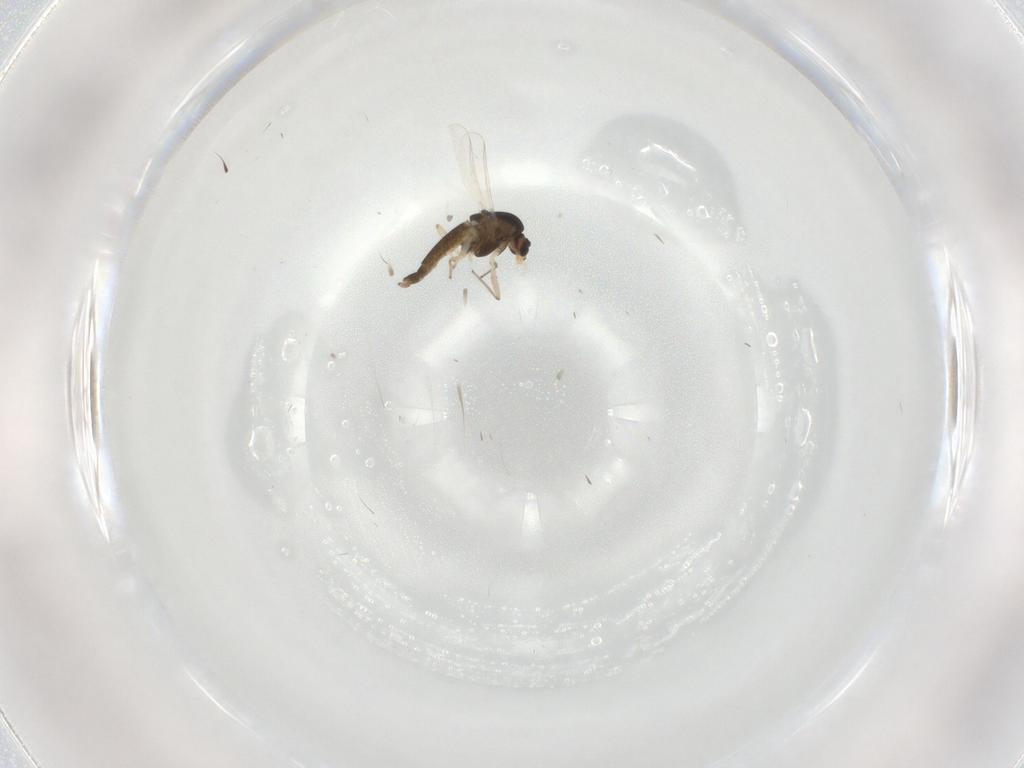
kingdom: Animalia
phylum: Arthropoda
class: Insecta
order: Diptera
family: Chironomidae
